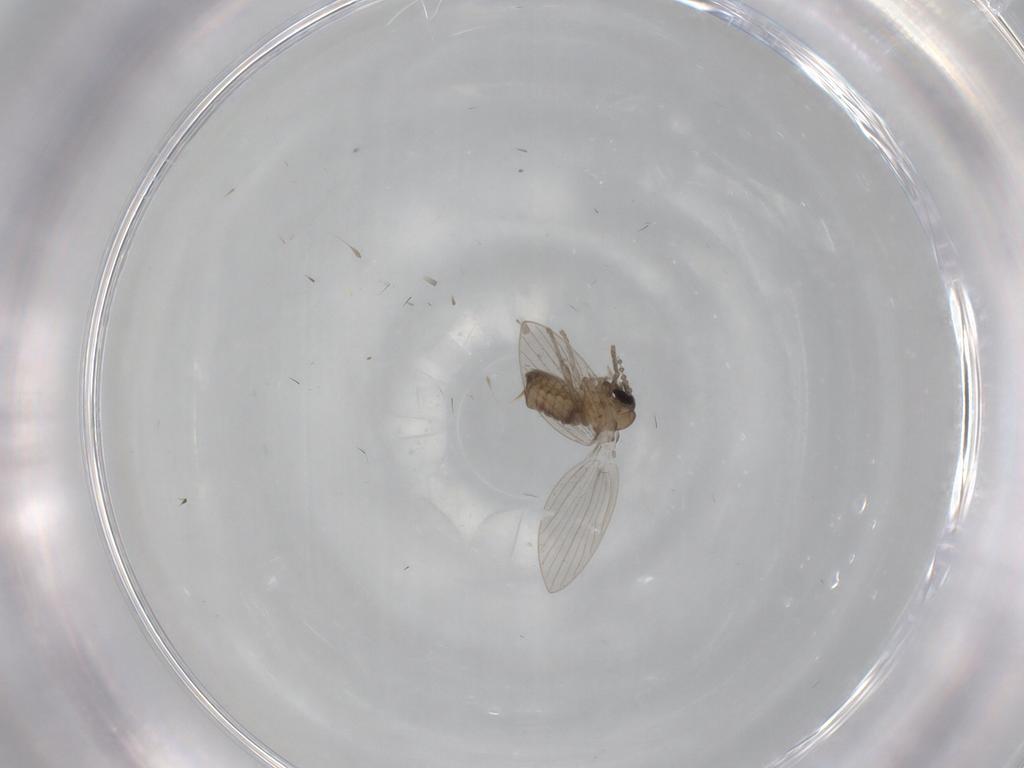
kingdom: Animalia
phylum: Arthropoda
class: Insecta
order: Diptera
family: Psychodidae
